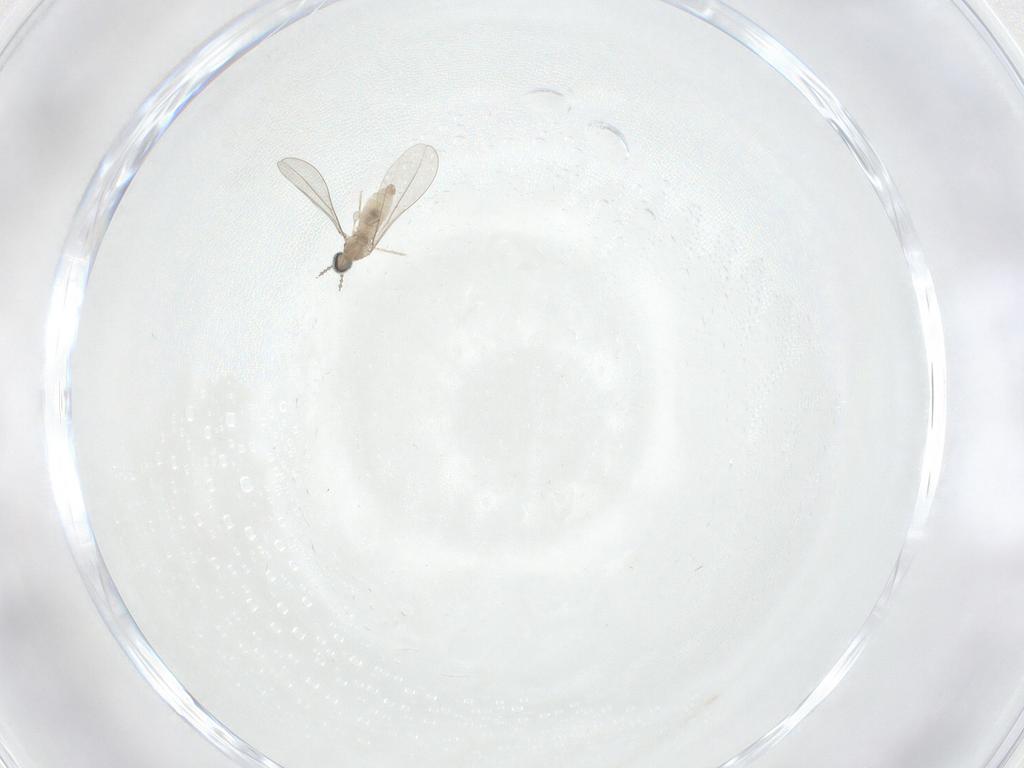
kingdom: Animalia
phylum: Arthropoda
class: Insecta
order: Diptera
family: Cecidomyiidae
